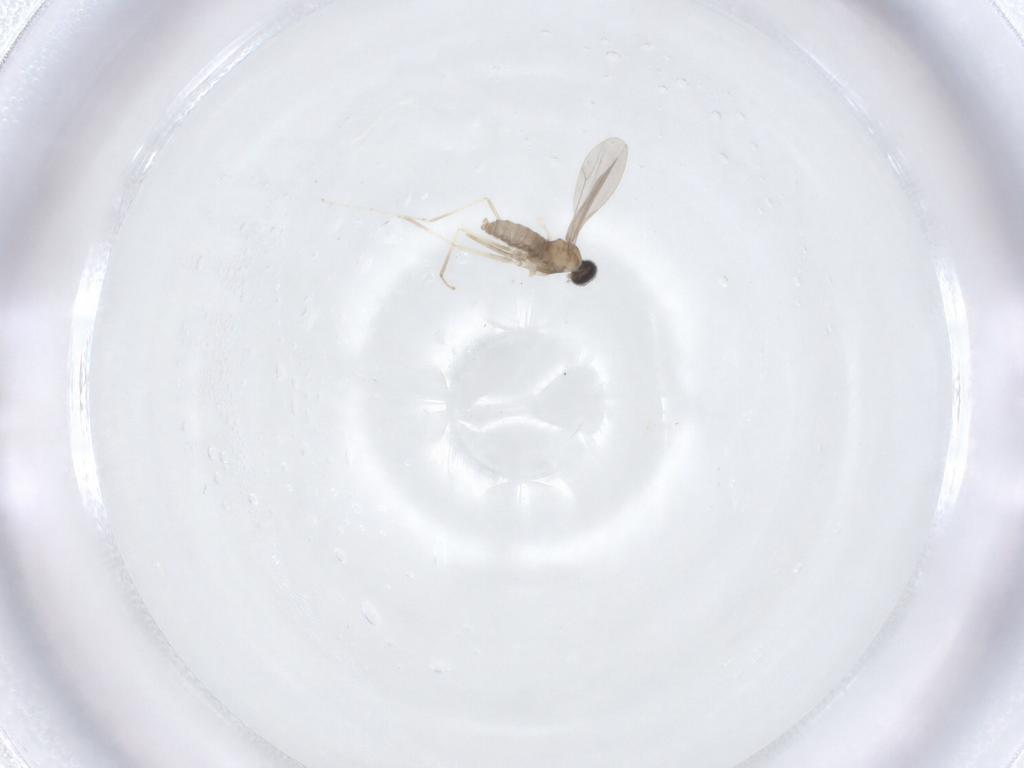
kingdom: Animalia
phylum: Arthropoda
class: Insecta
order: Diptera
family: Cecidomyiidae
